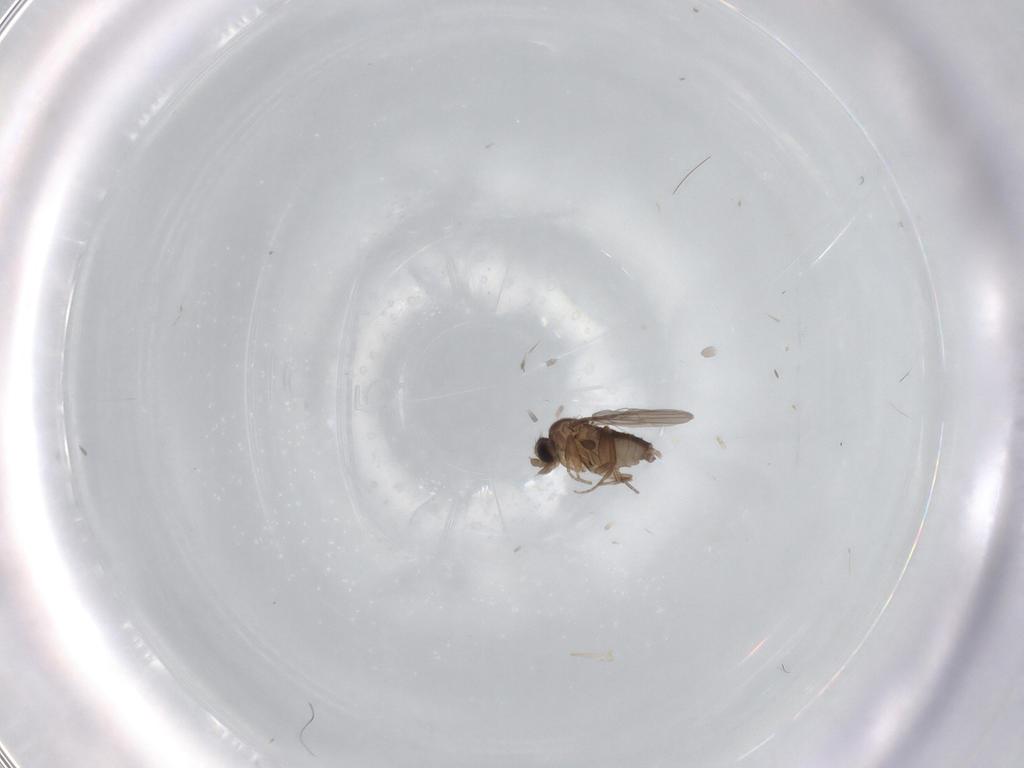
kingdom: Animalia
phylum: Arthropoda
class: Insecta
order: Diptera
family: Phoridae
